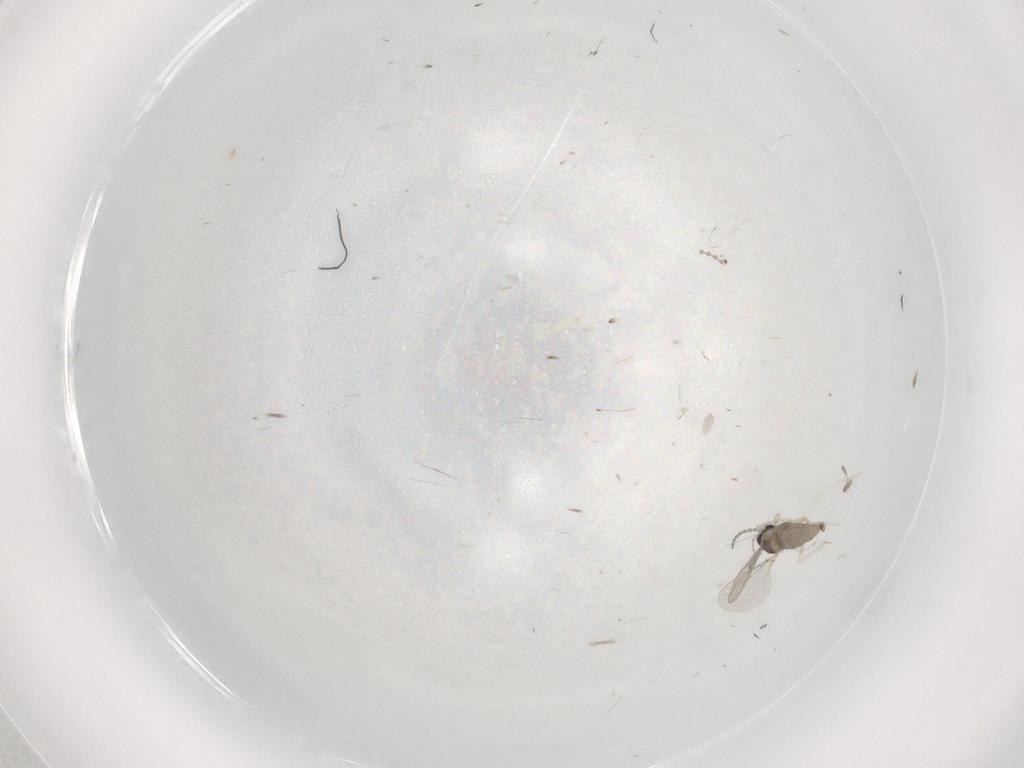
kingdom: Animalia
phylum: Arthropoda
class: Insecta
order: Diptera
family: Cecidomyiidae
